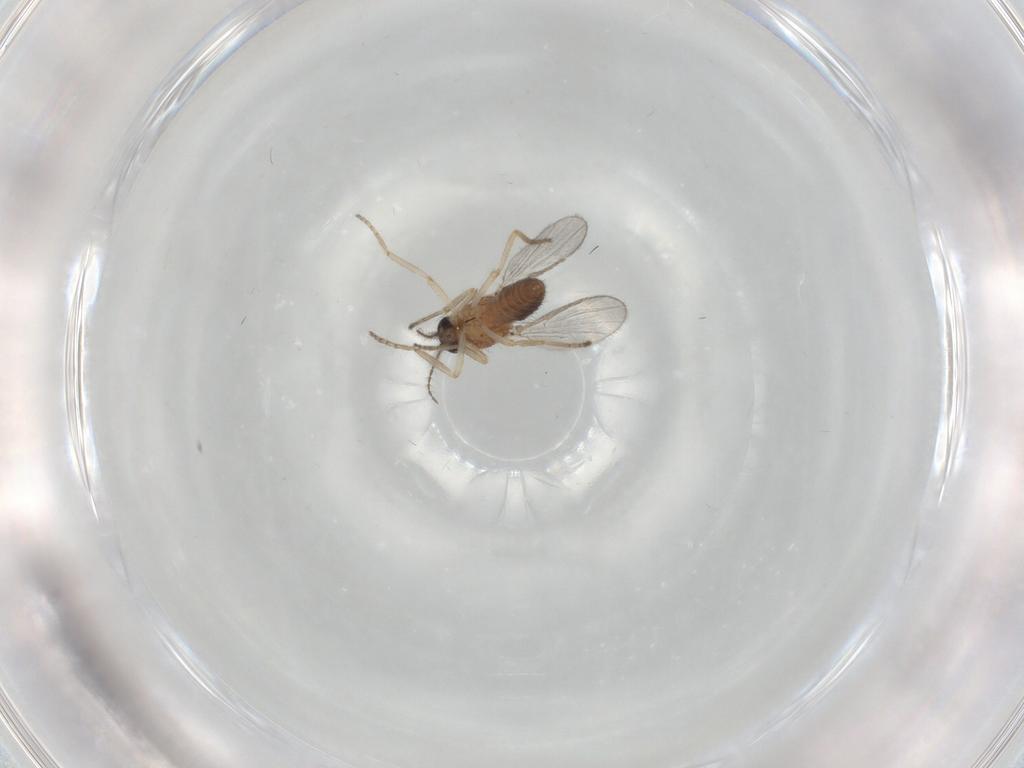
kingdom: Animalia
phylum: Arthropoda
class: Insecta
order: Diptera
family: Ceratopogonidae
